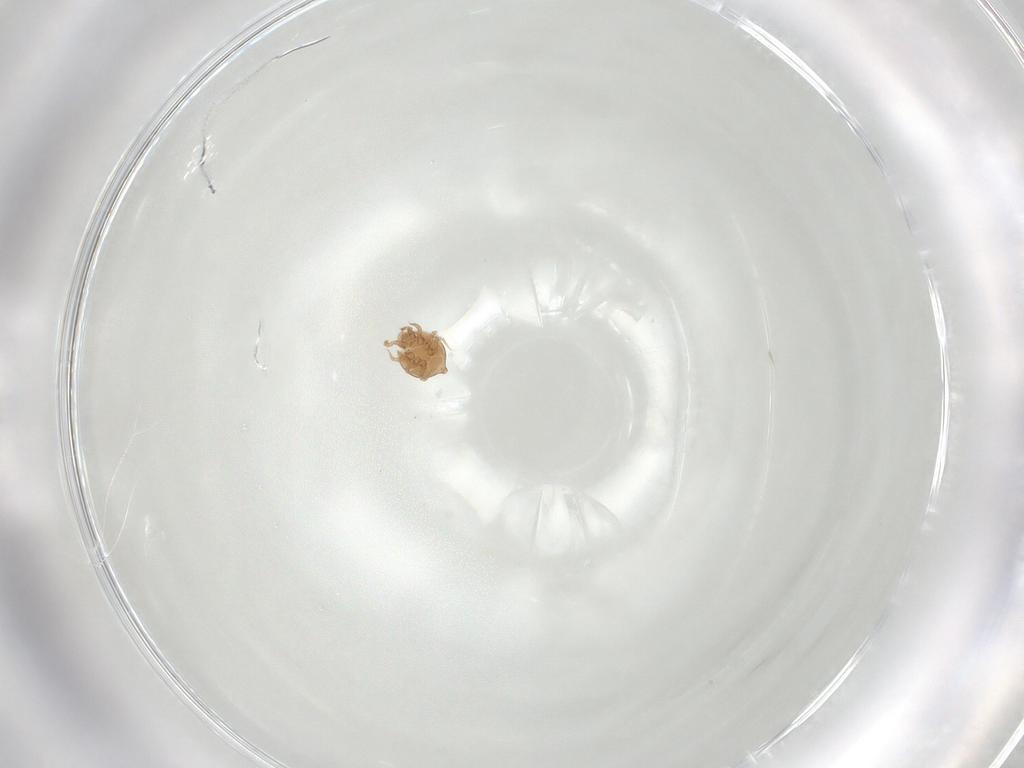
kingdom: Animalia
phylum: Arthropoda
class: Arachnida
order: Mesostigmata
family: Polyaspididae
